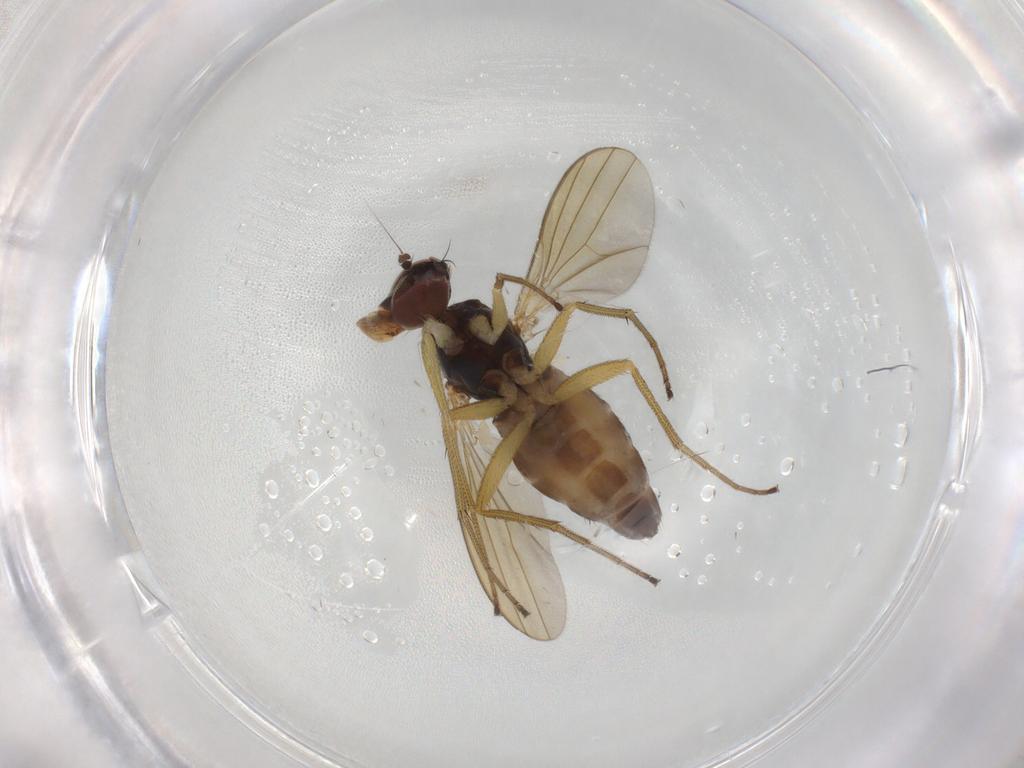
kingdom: Animalia
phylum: Arthropoda
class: Insecta
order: Diptera
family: Dolichopodidae
